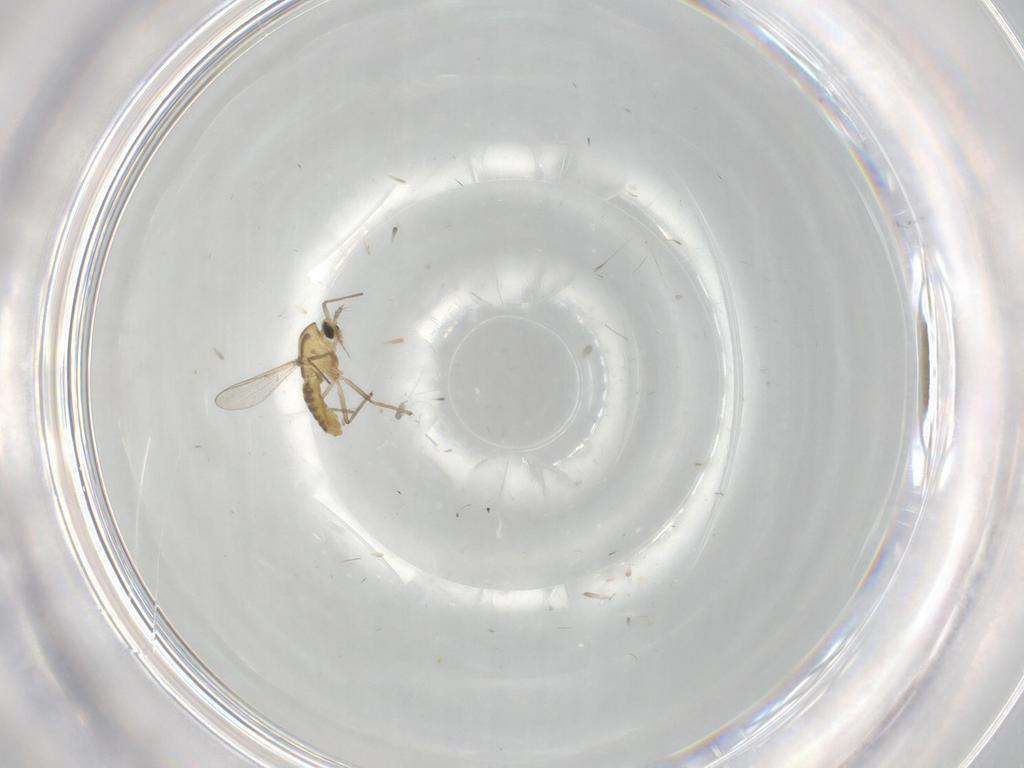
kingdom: Animalia
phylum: Arthropoda
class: Insecta
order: Diptera
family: Chironomidae
